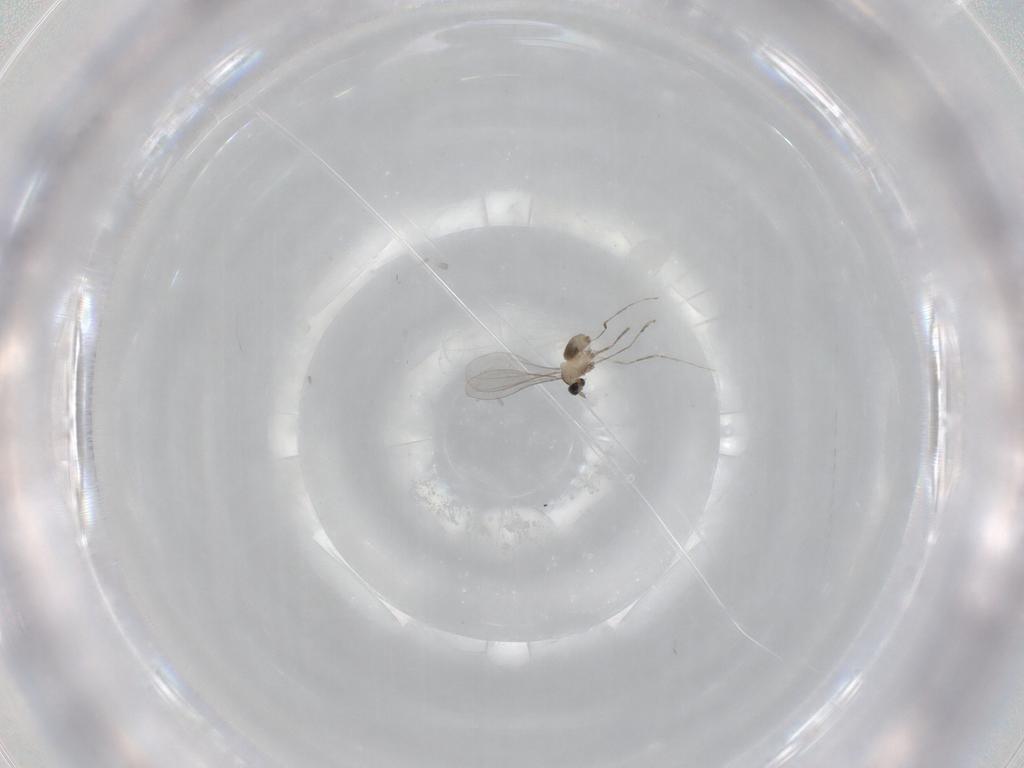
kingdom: Animalia
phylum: Arthropoda
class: Insecta
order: Diptera
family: Cecidomyiidae
